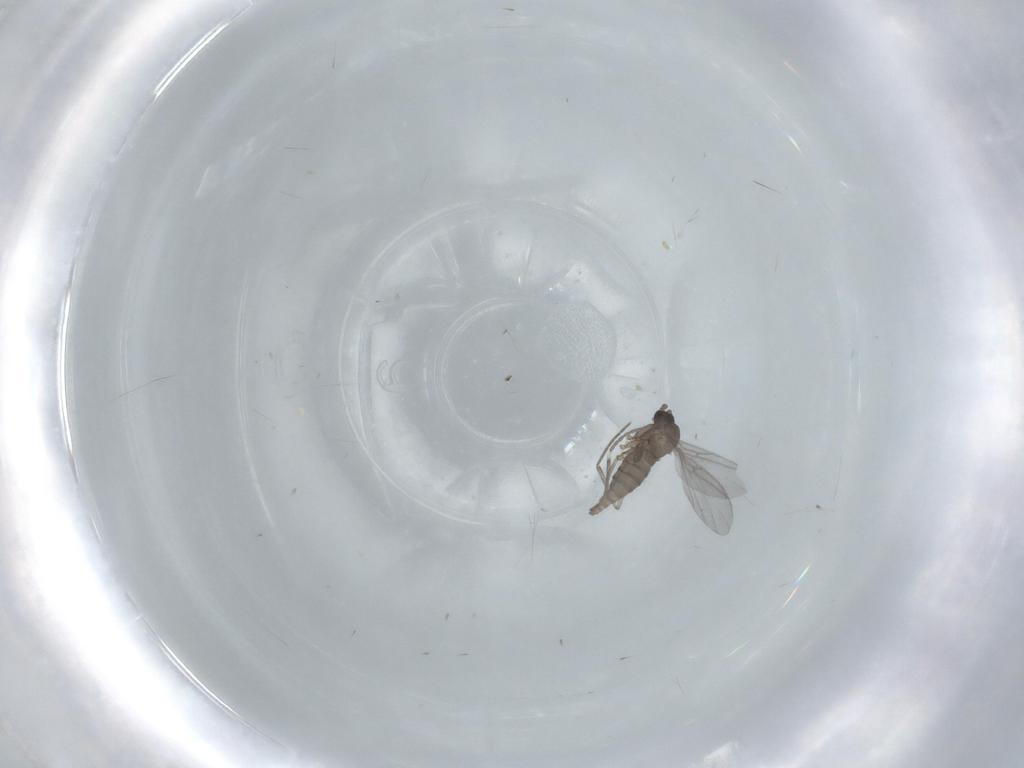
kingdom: Animalia
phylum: Arthropoda
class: Insecta
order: Diptera
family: Sciaridae
